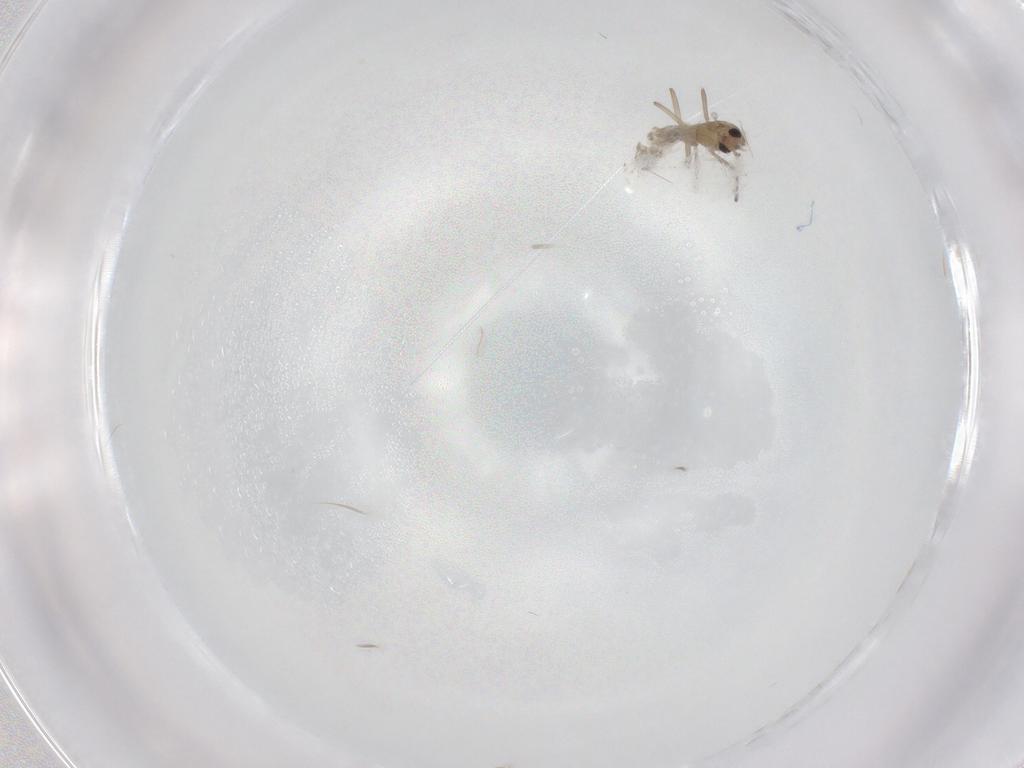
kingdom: Animalia
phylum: Arthropoda
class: Insecta
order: Diptera
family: Chironomidae
